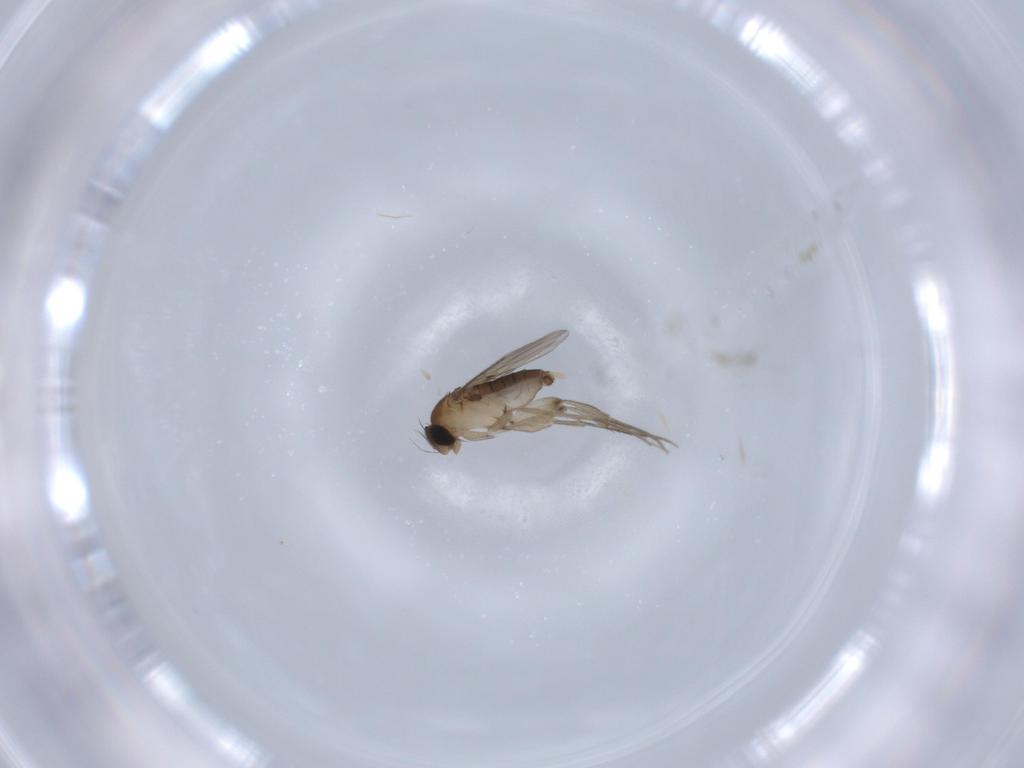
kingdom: Animalia
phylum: Arthropoda
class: Insecta
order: Diptera
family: Phoridae
